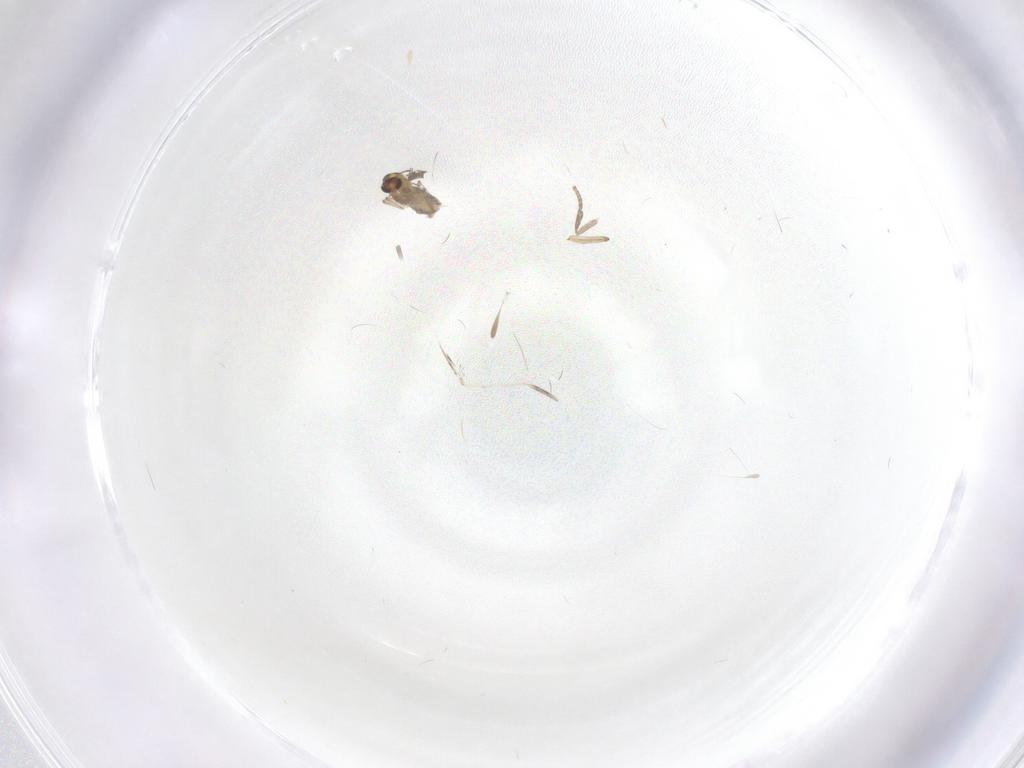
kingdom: Animalia
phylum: Arthropoda
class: Insecta
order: Diptera
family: Chironomidae
